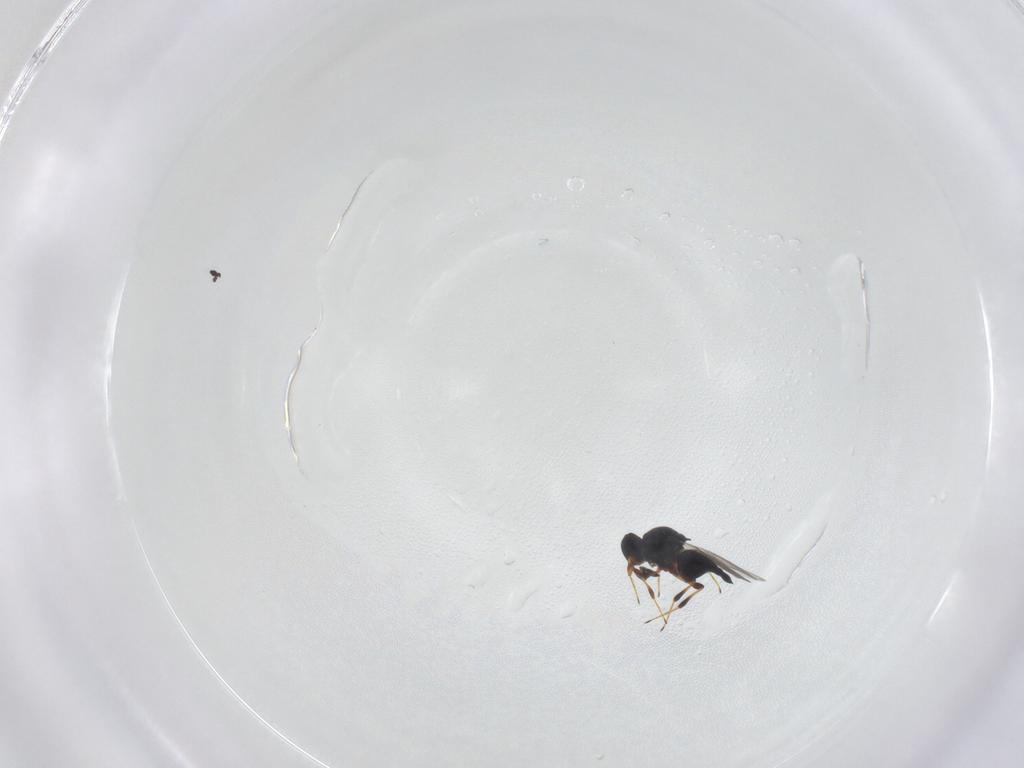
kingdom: Animalia
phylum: Arthropoda
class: Insecta
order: Hymenoptera
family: Platygastridae
